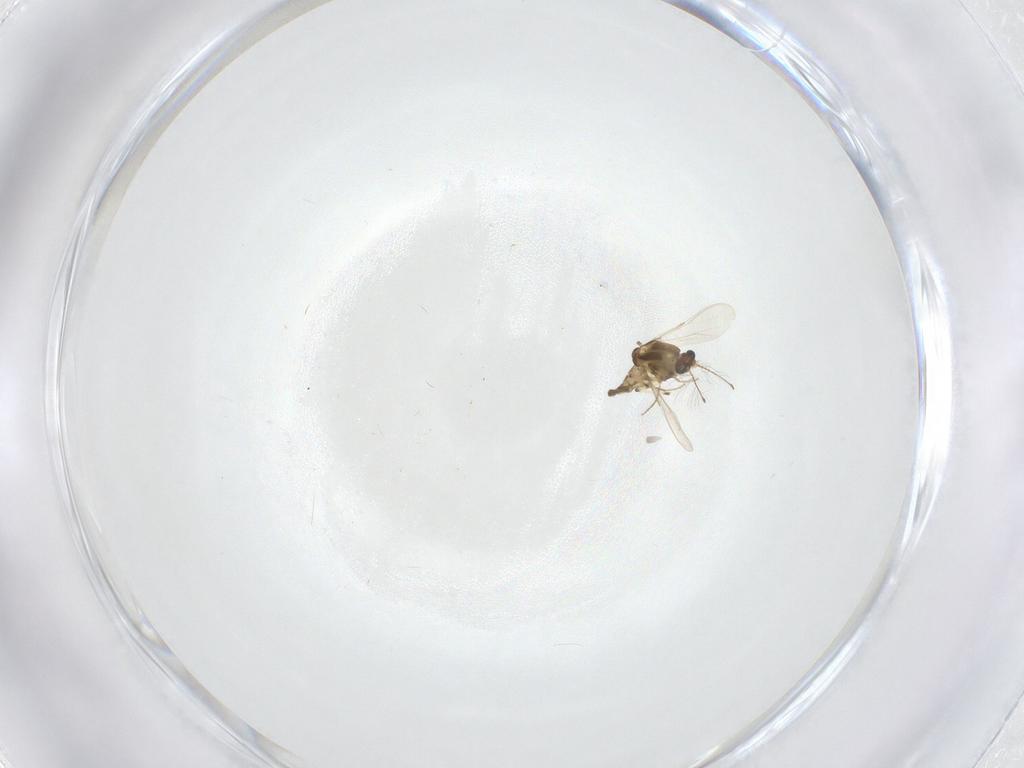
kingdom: Animalia
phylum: Arthropoda
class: Insecta
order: Diptera
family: Chironomidae
